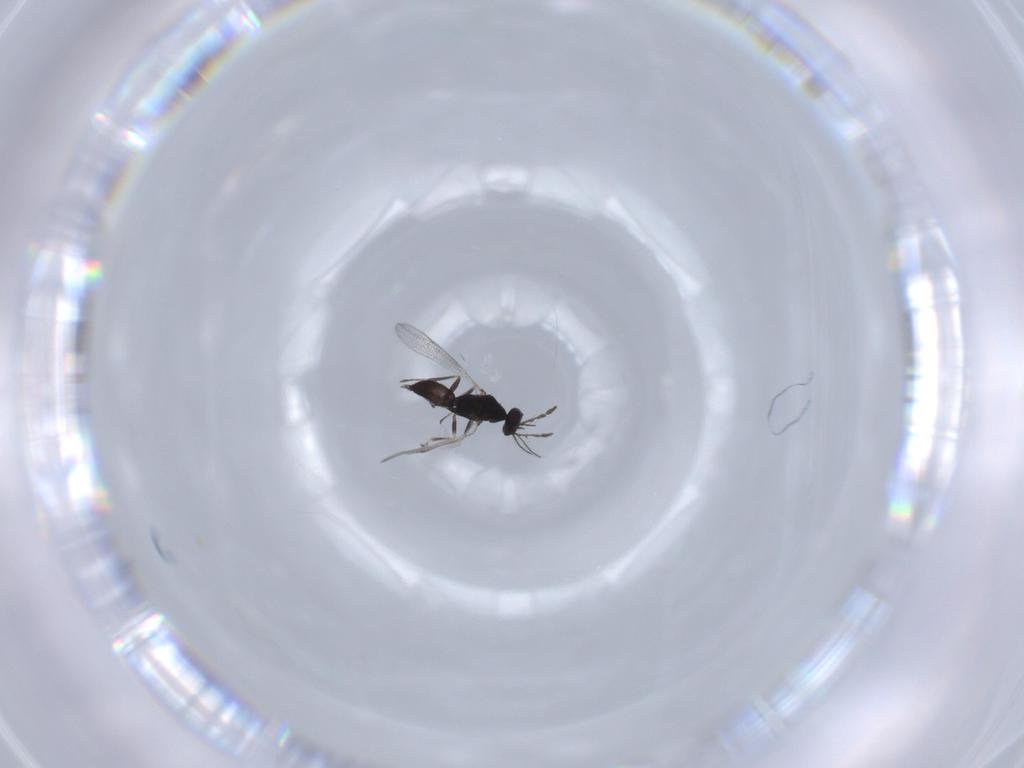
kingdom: Animalia
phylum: Arthropoda
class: Insecta
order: Hymenoptera
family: Eulophidae
